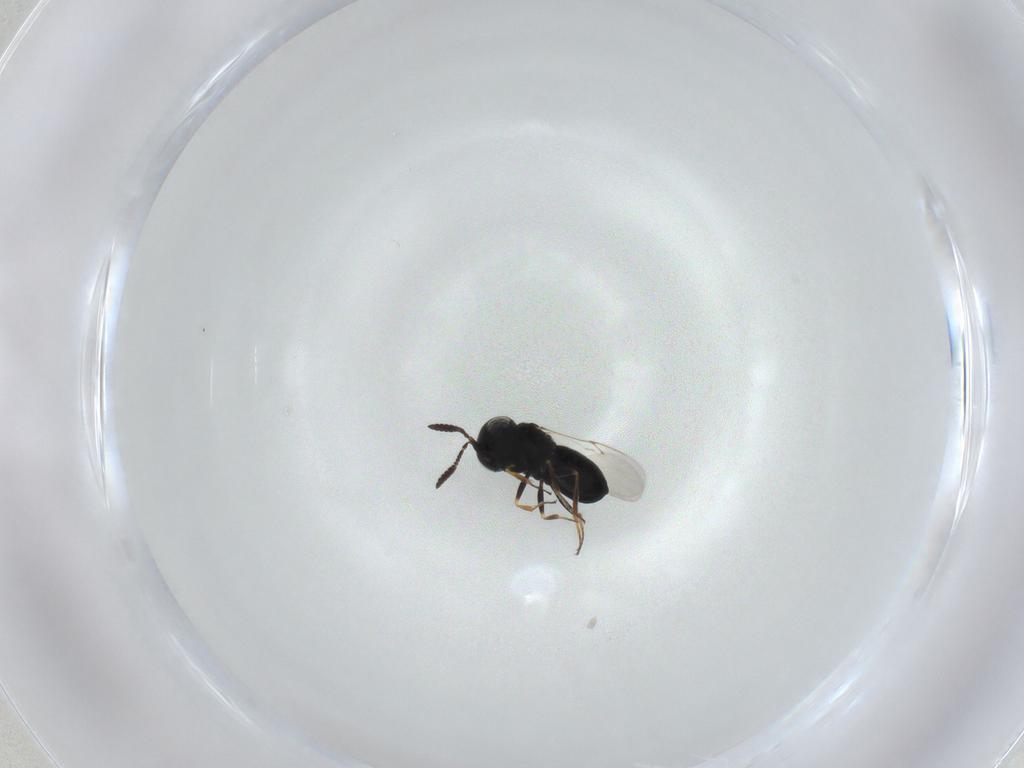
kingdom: Animalia
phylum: Arthropoda
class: Insecta
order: Hymenoptera
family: Scelionidae
